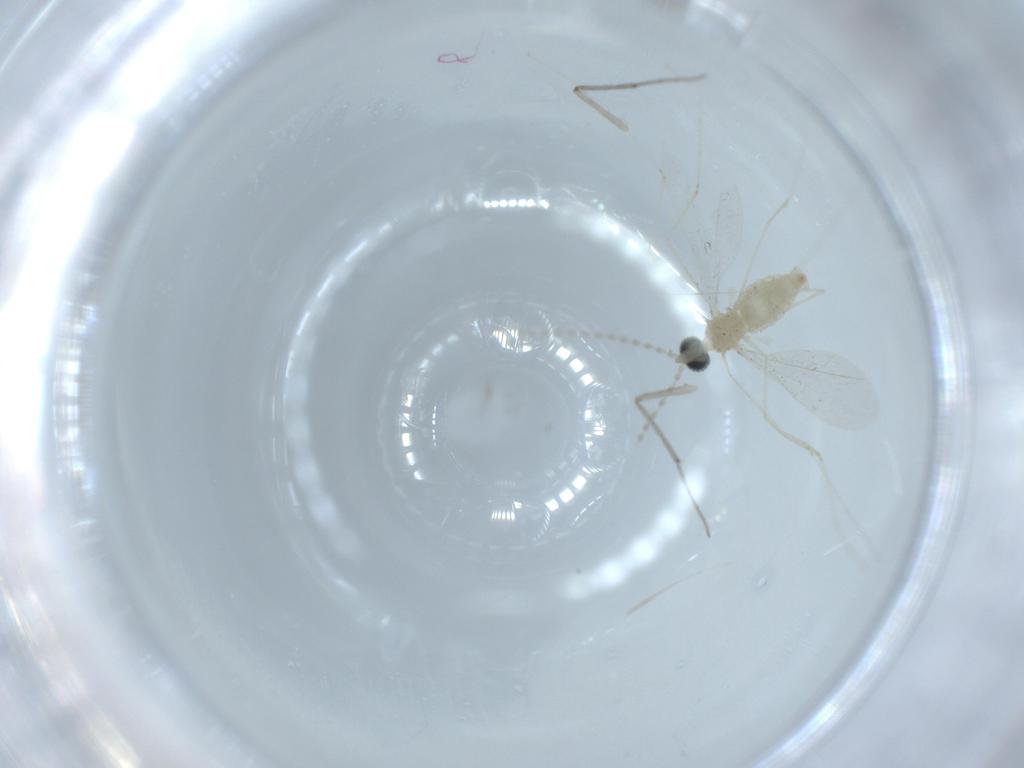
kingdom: Animalia
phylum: Arthropoda
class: Insecta
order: Diptera
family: Cecidomyiidae
